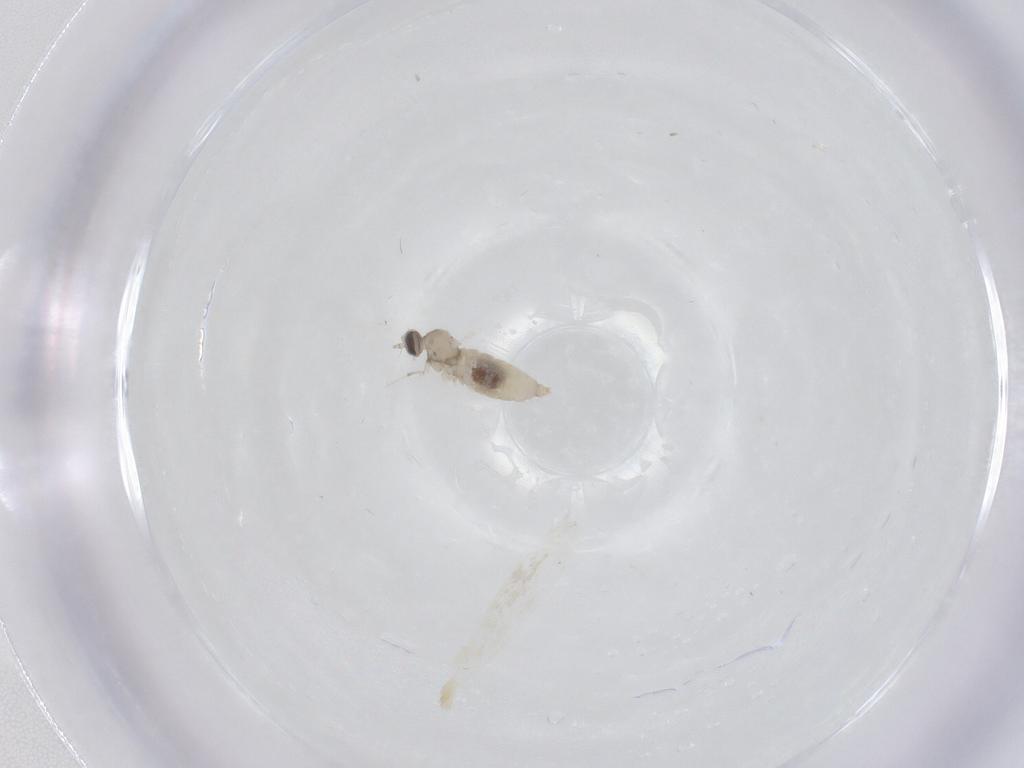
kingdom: Animalia
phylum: Arthropoda
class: Insecta
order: Diptera
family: Cecidomyiidae
